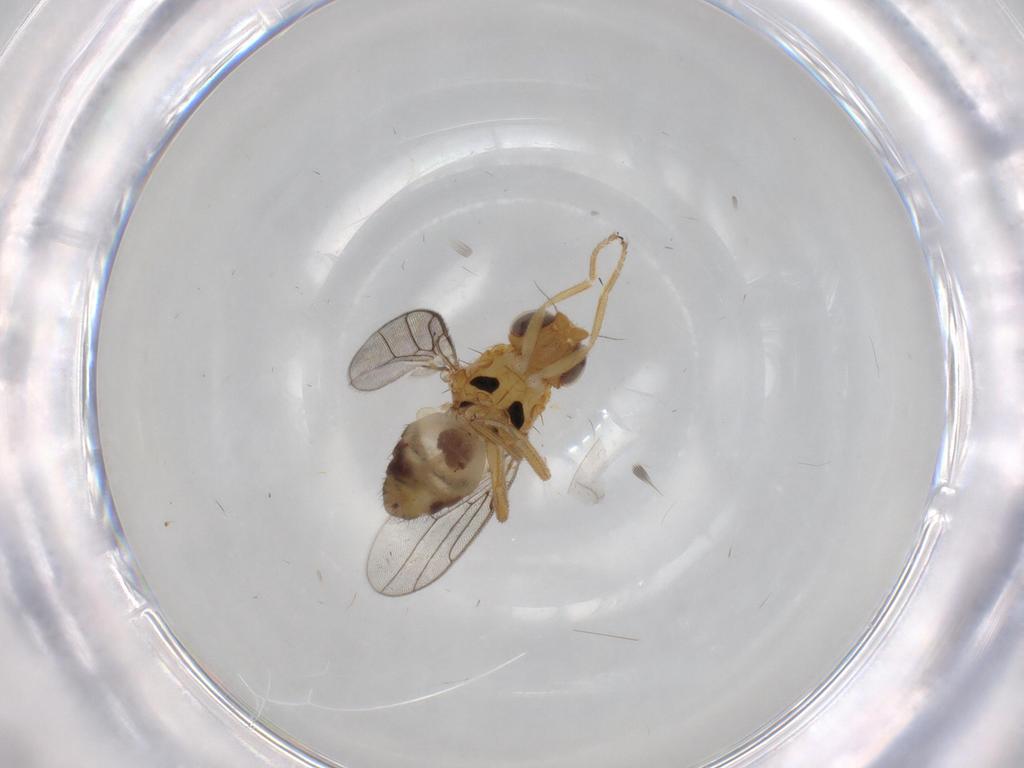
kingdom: Animalia
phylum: Arthropoda
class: Insecta
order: Diptera
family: Chloropidae
